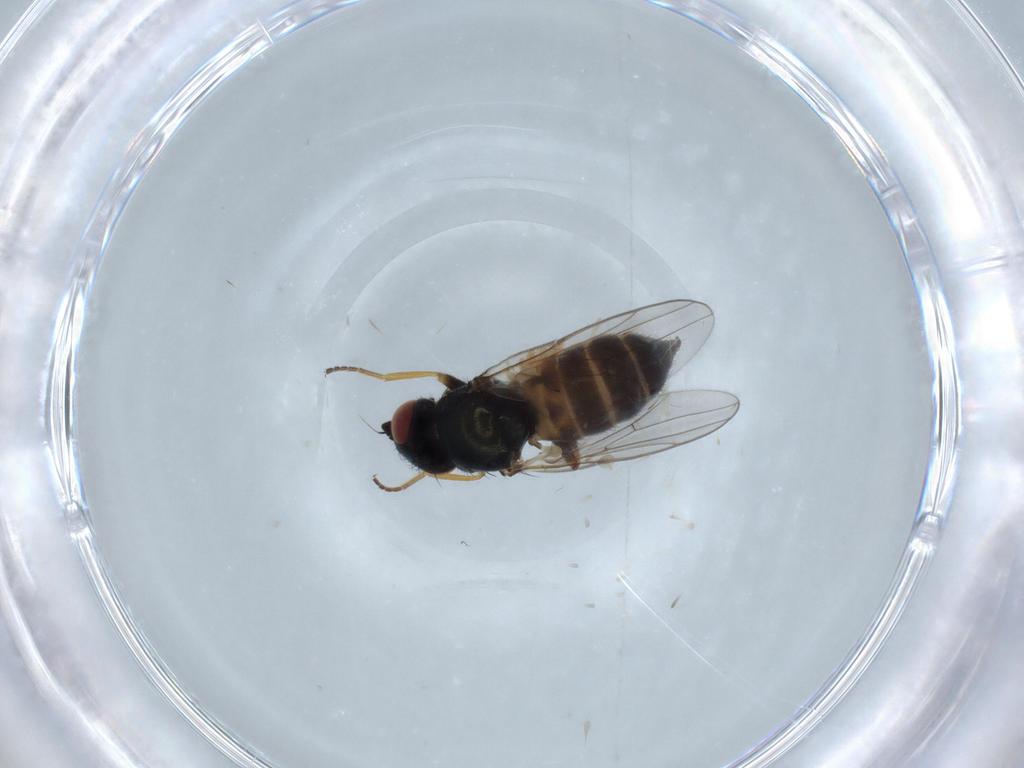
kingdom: Animalia
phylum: Arthropoda
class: Insecta
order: Diptera
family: Chloropidae
